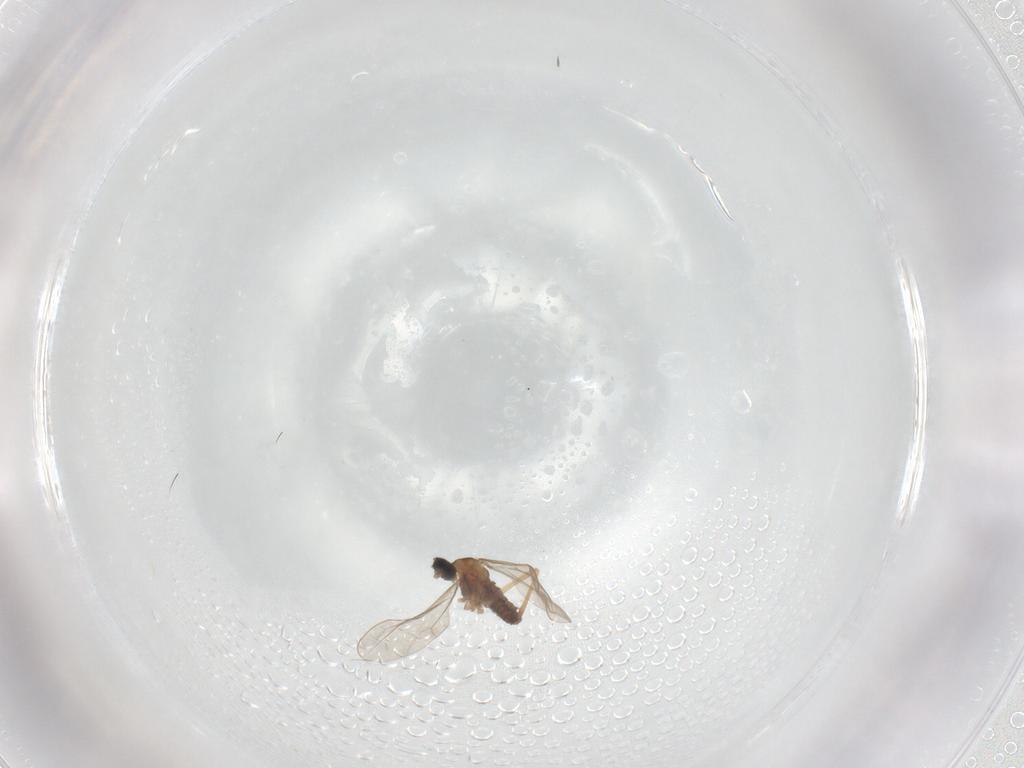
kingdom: Animalia
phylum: Arthropoda
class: Insecta
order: Diptera
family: Cecidomyiidae
